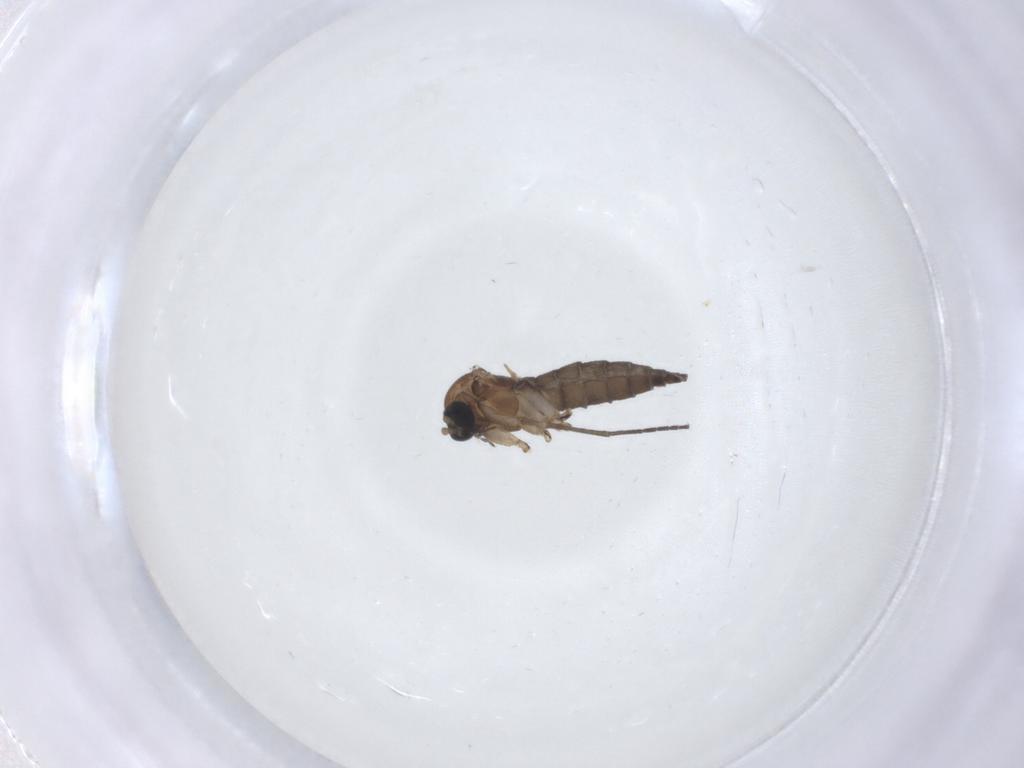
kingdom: Animalia
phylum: Arthropoda
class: Insecta
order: Diptera
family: Sciaridae
